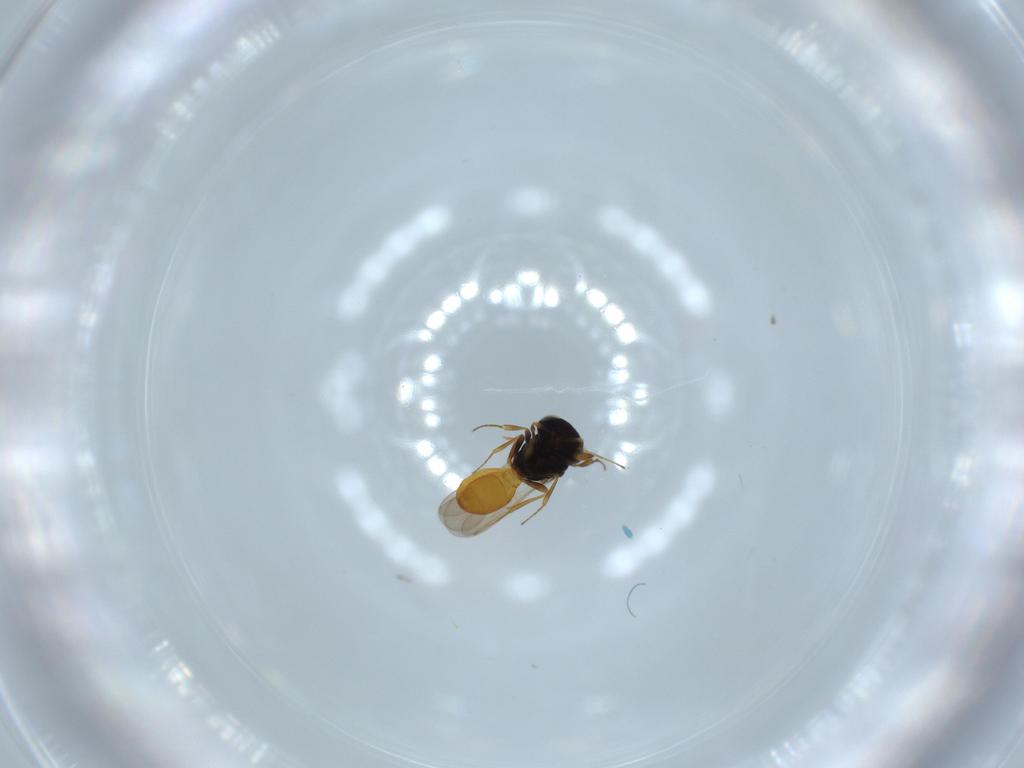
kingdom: Animalia
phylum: Arthropoda
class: Insecta
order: Hymenoptera
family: Scelionidae
